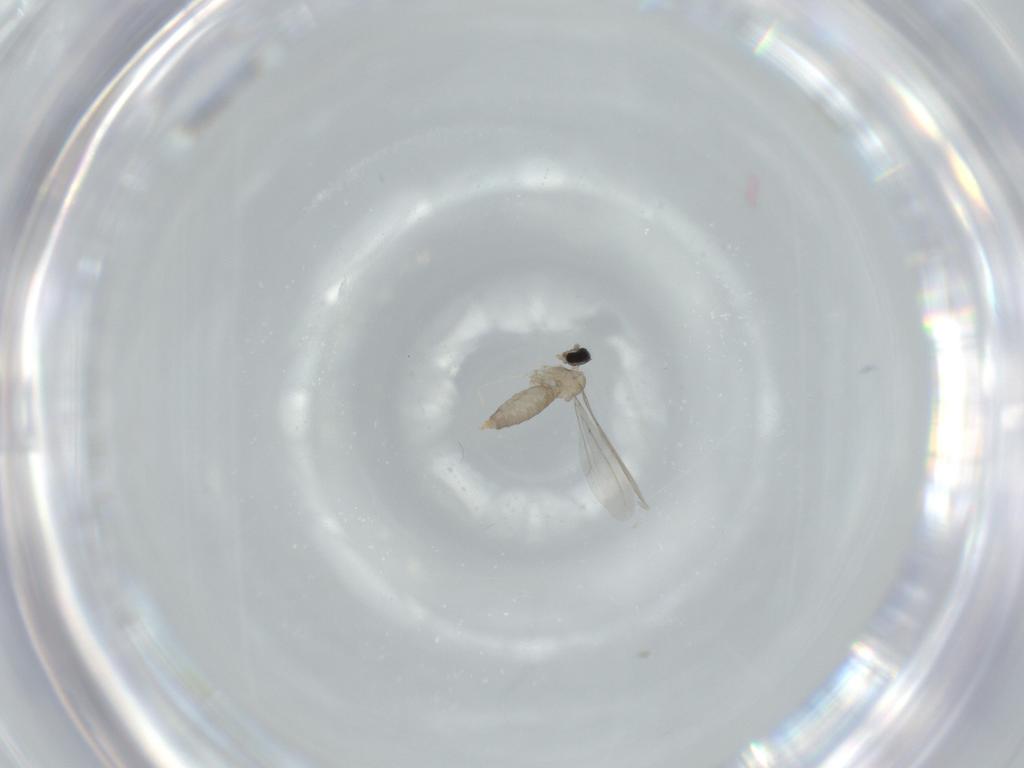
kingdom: Animalia
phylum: Arthropoda
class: Insecta
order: Diptera
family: Cecidomyiidae
